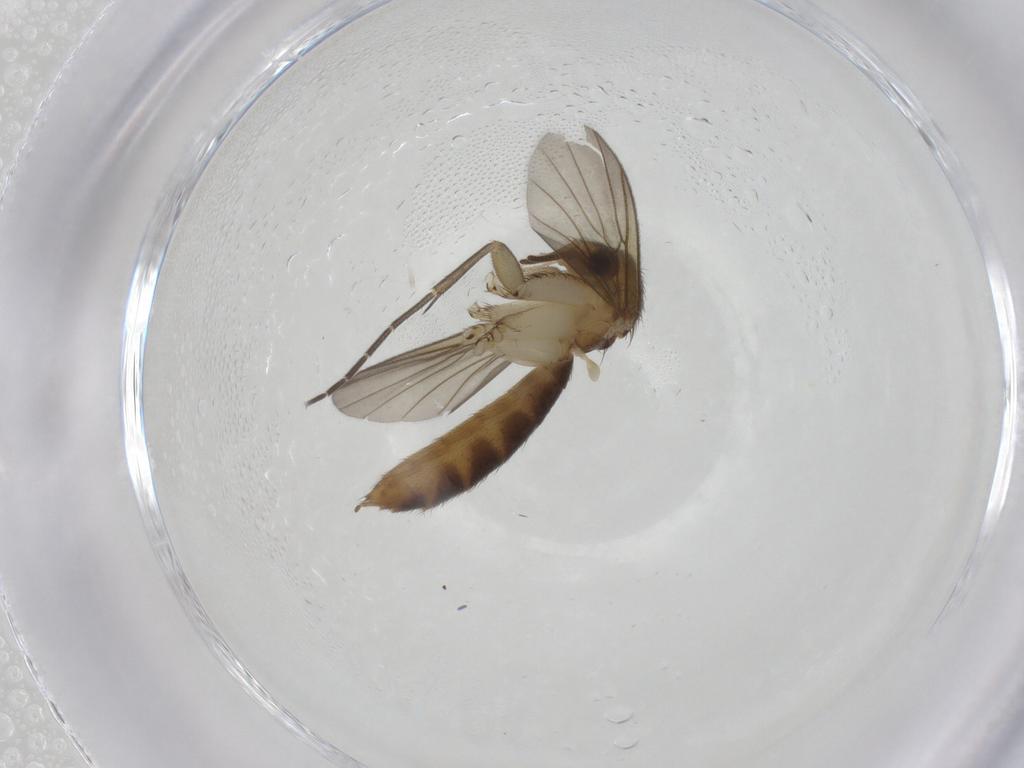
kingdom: Animalia
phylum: Arthropoda
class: Insecta
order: Diptera
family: Mycetophilidae
